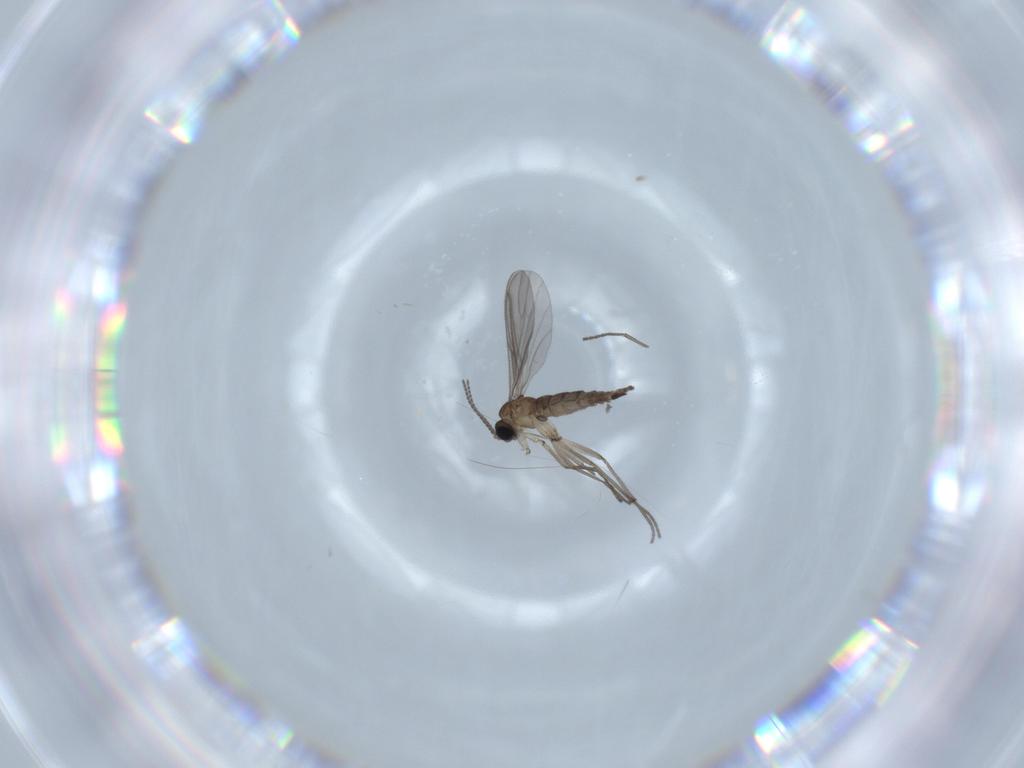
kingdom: Animalia
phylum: Arthropoda
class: Insecta
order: Diptera
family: Sciaridae
